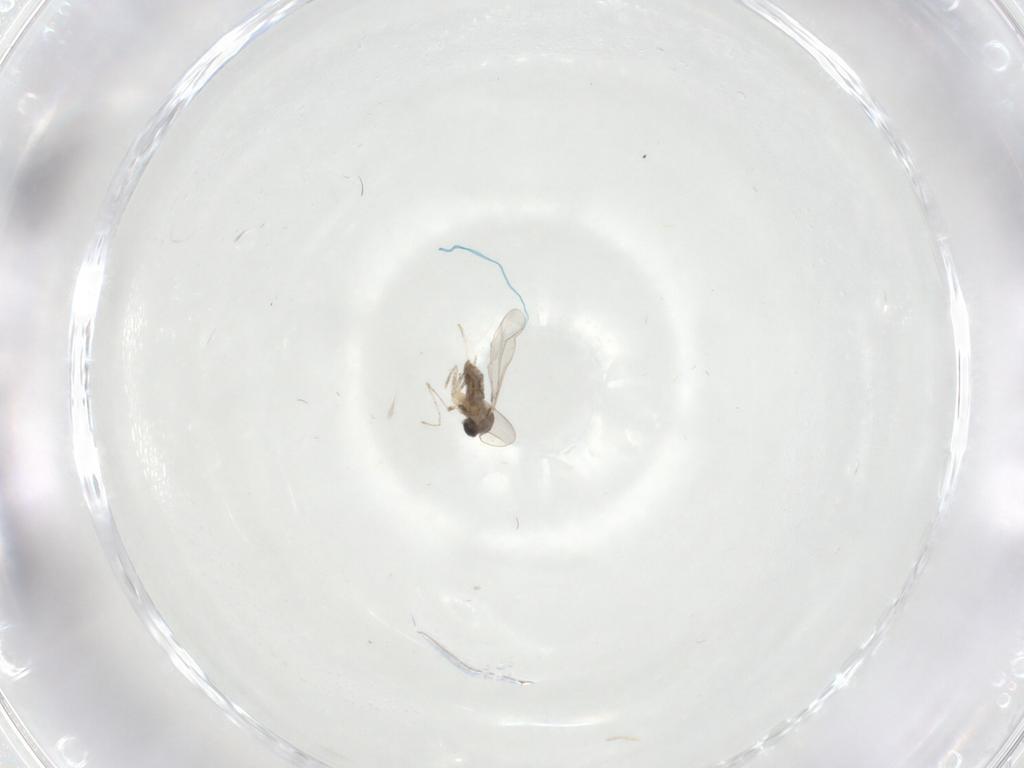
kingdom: Animalia
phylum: Arthropoda
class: Insecta
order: Diptera
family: Cecidomyiidae
